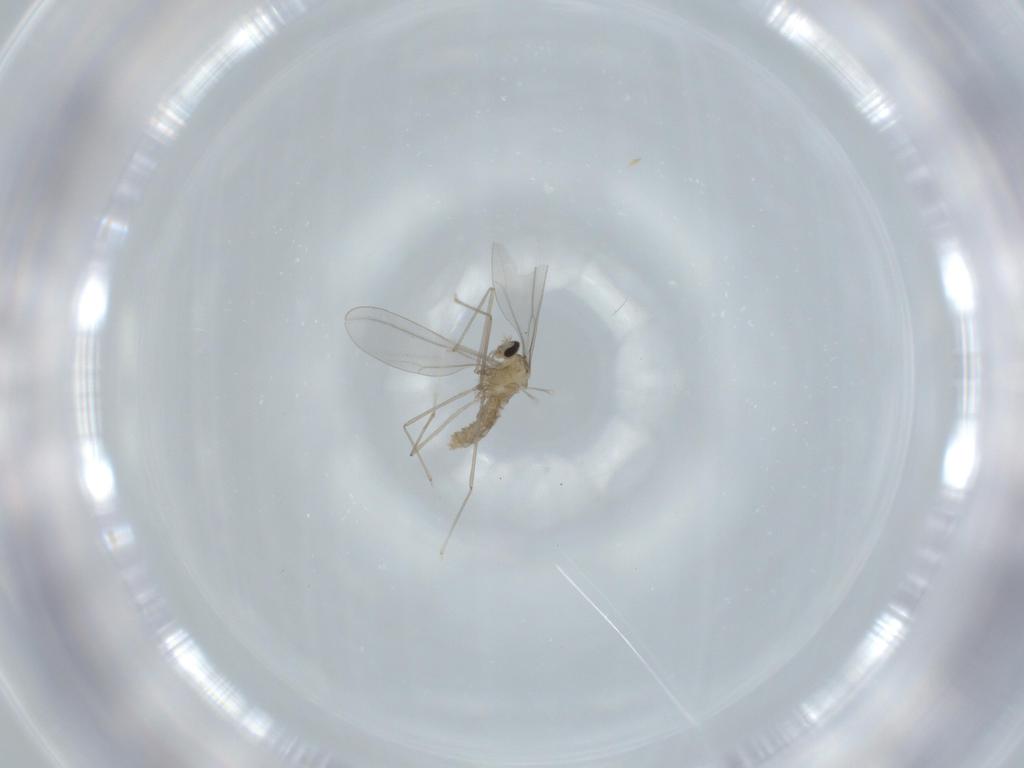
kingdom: Animalia
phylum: Arthropoda
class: Insecta
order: Diptera
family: Cecidomyiidae
